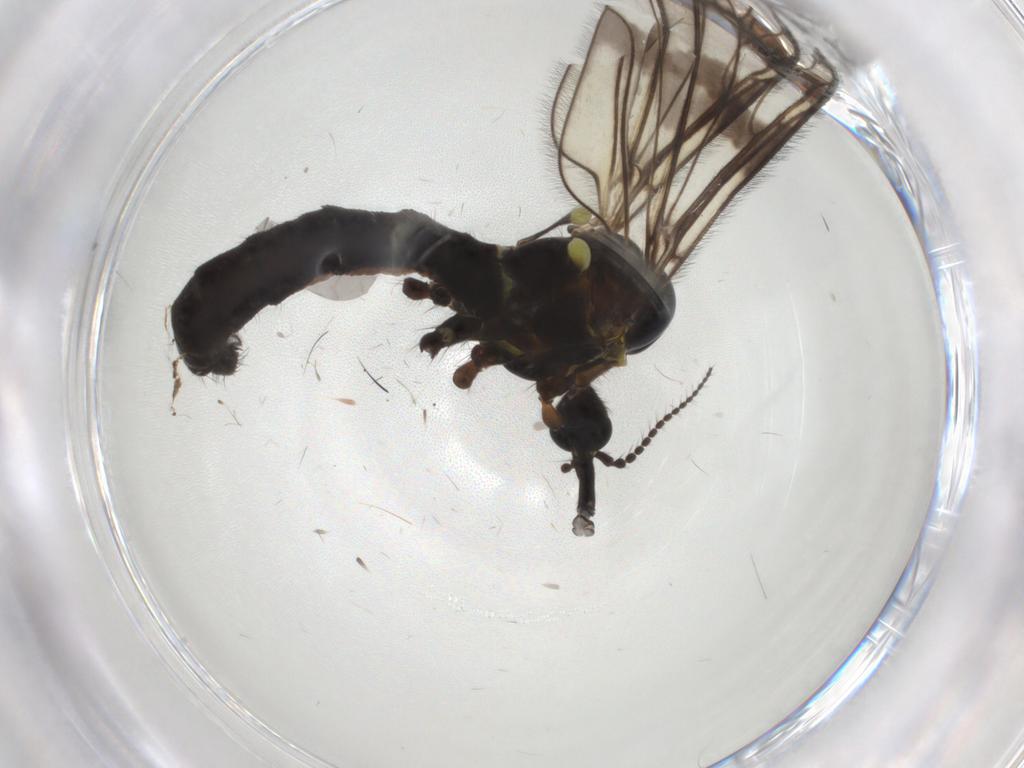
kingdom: Animalia
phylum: Arthropoda
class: Insecta
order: Diptera
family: Limoniidae
